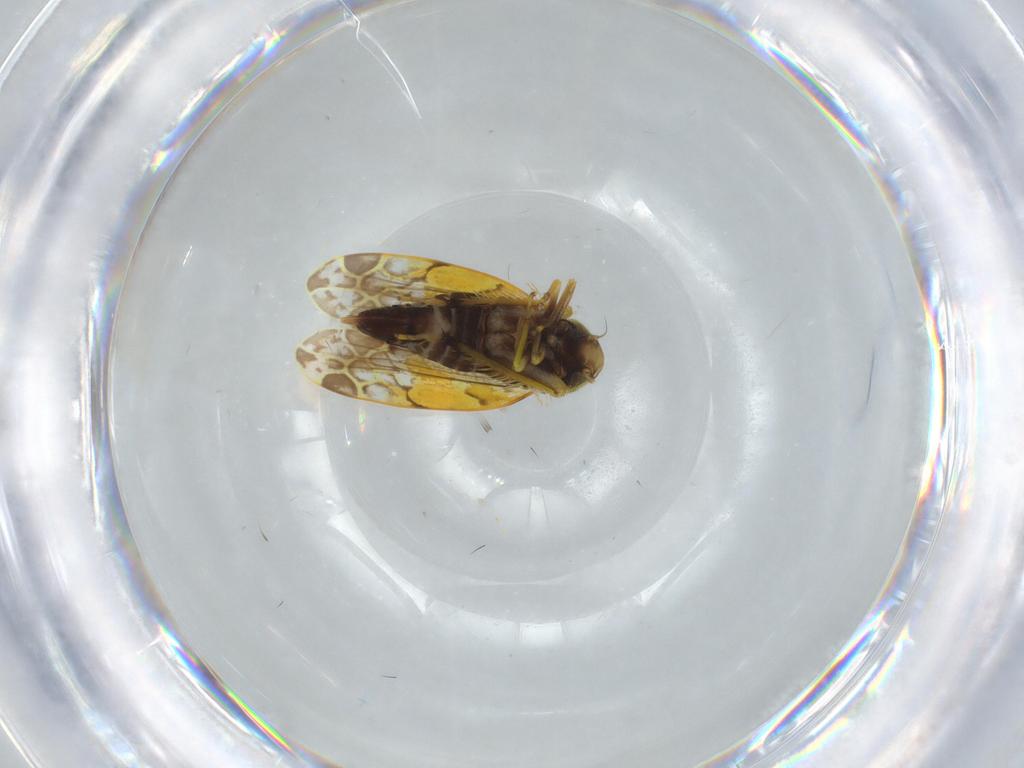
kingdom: Animalia
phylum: Arthropoda
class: Insecta
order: Hemiptera
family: Cicadellidae
